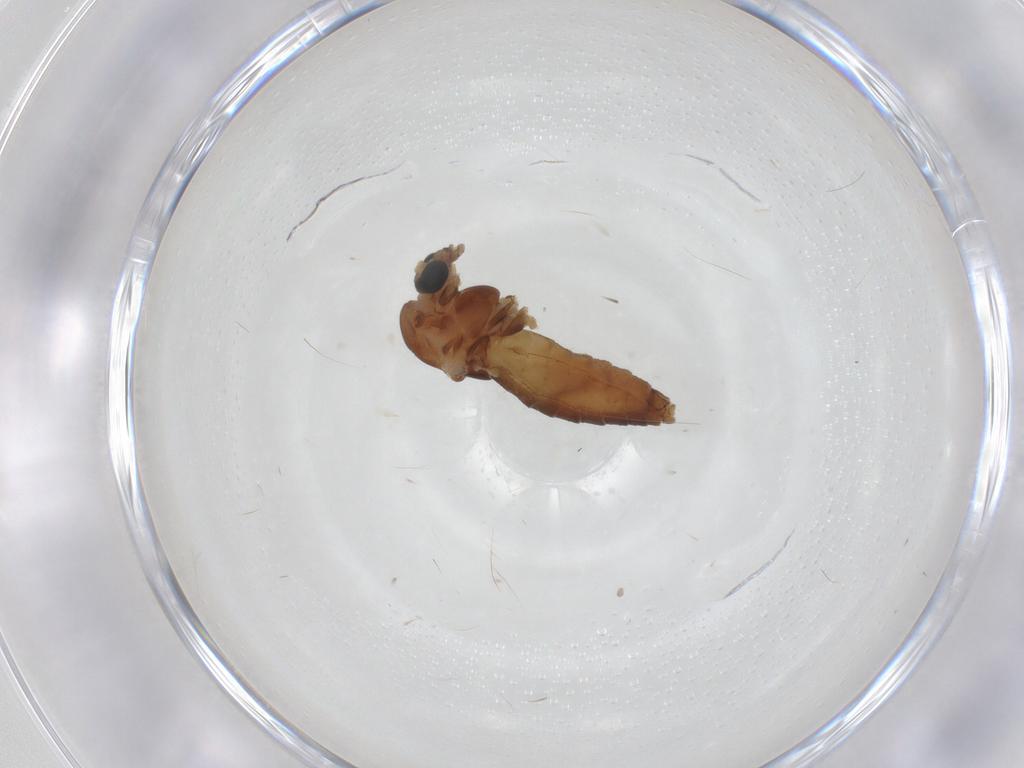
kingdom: Animalia
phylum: Arthropoda
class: Insecta
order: Diptera
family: Chironomidae
